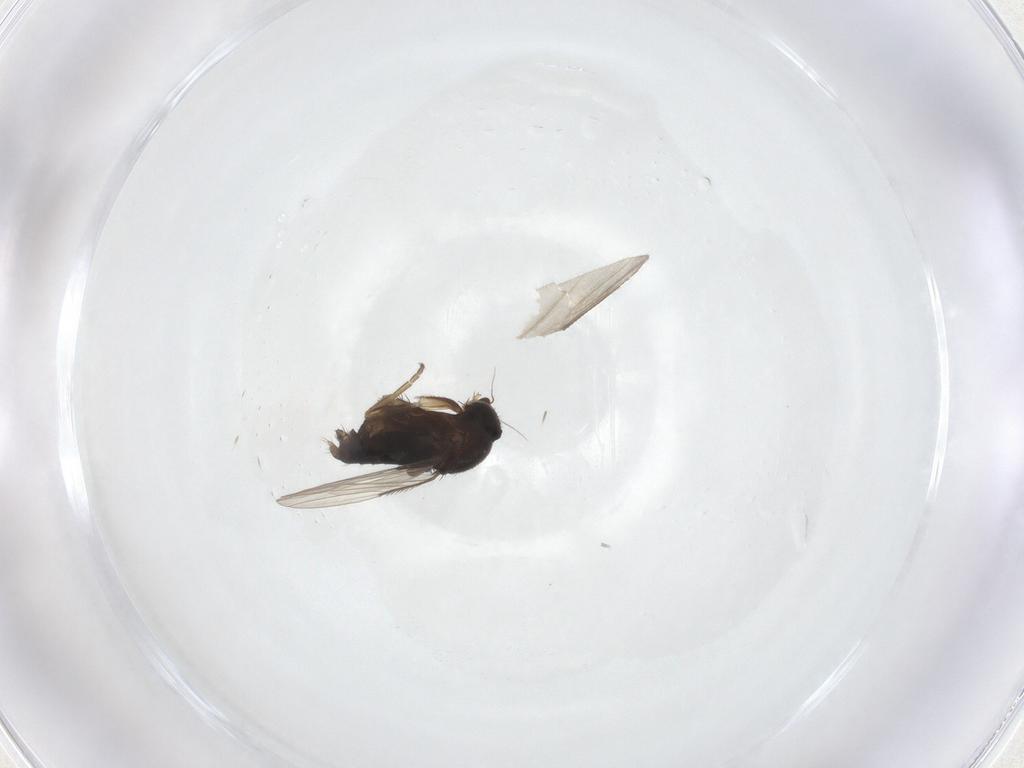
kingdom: Animalia
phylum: Arthropoda
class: Insecta
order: Diptera
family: Phoridae
